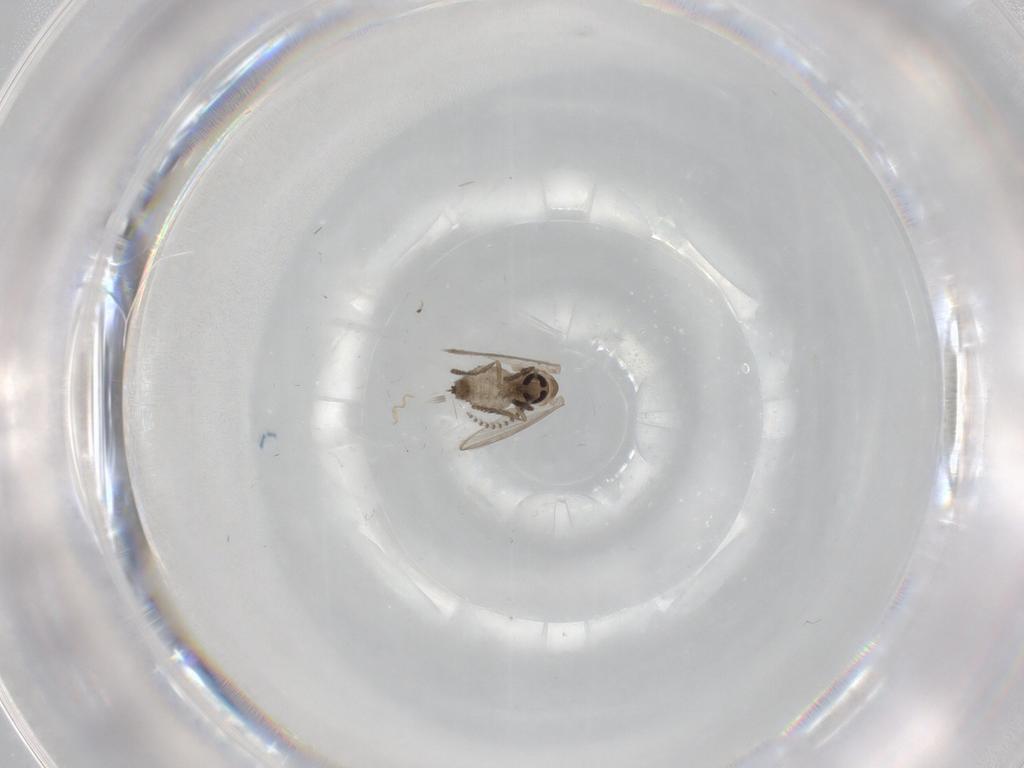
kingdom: Animalia
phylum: Arthropoda
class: Insecta
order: Diptera
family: Psychodidae
